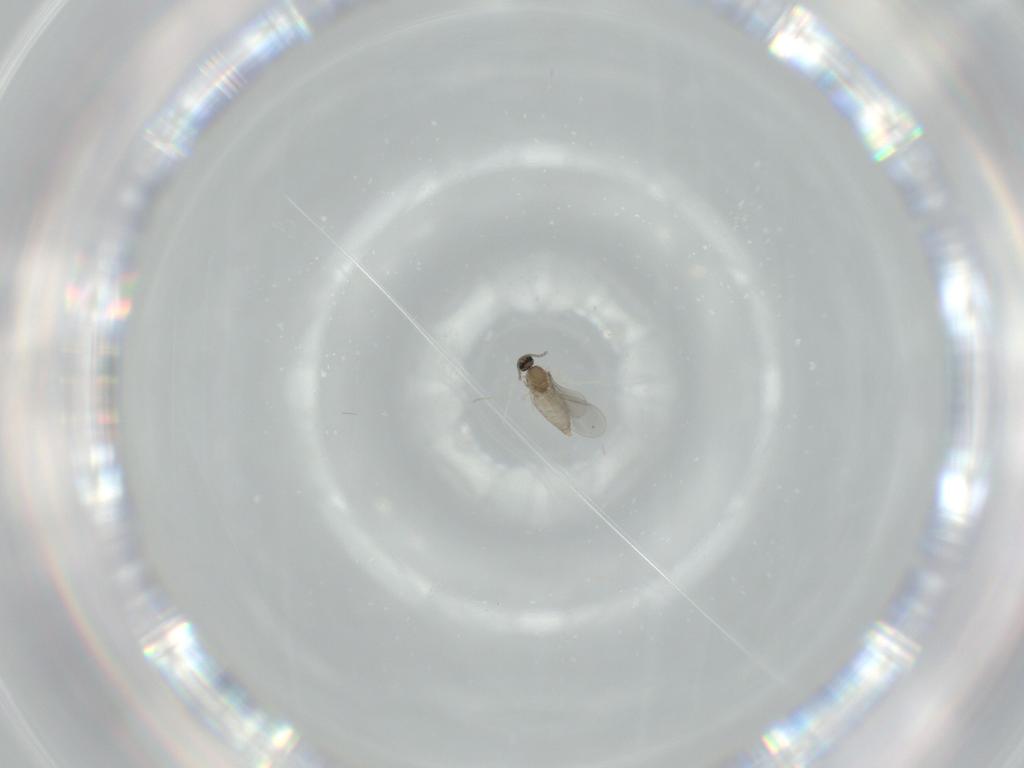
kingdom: Animalia
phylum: Arthropoda
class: Insecta
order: Diptera
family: Cecidomyiidae
